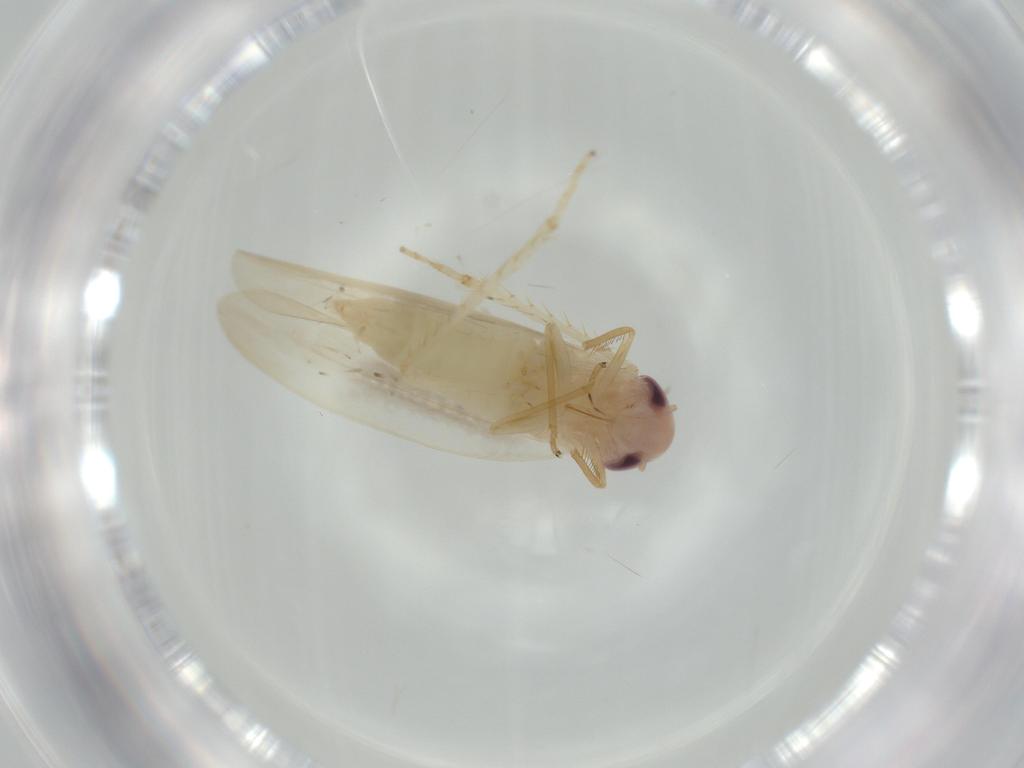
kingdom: Animalia
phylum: Arthropoda
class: Insecta
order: Hemiptera
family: Cicadellidae
